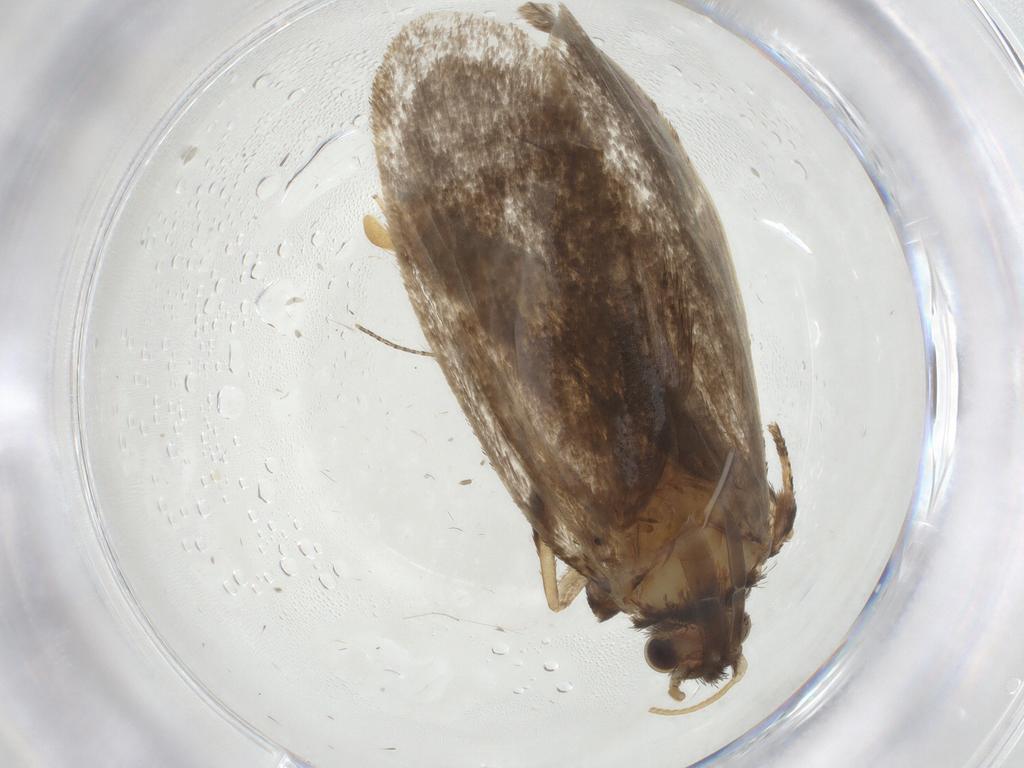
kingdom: Animalia
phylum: Arthropoda
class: Insecta
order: Lepidoptera
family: Tineidae
